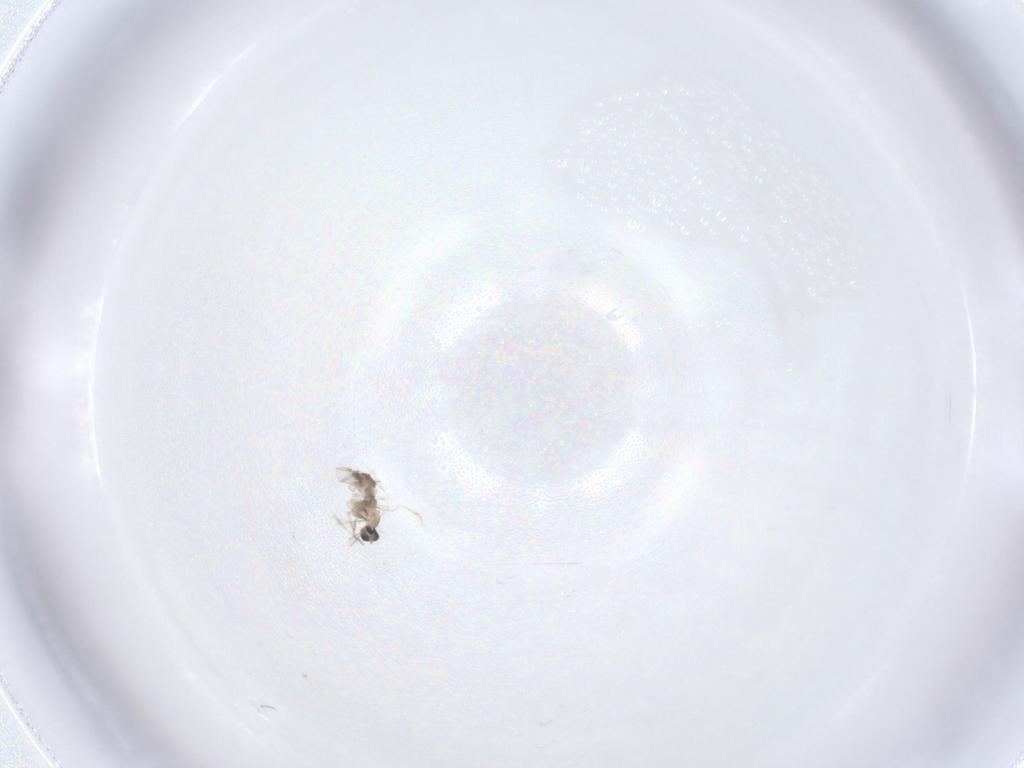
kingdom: Animalia
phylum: Arthropoda
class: Insecta
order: Diptera
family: Cecidomyiidae
